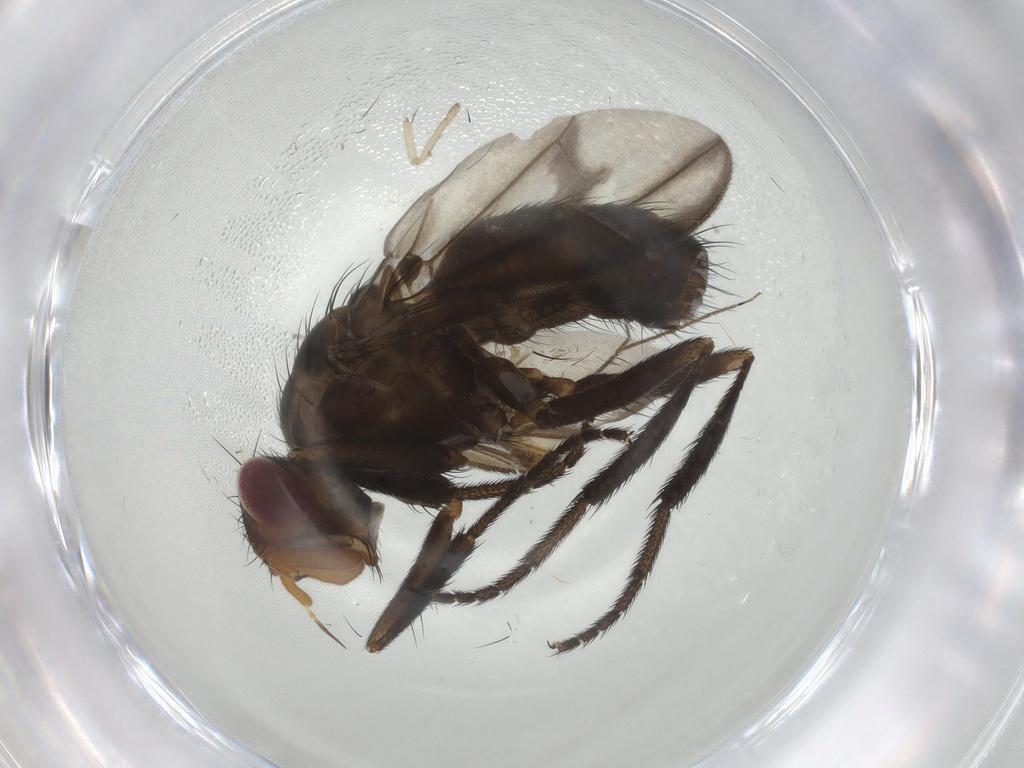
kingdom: Animalia
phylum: Arthropoda
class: Insecta
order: Diptera
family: Psychodidae
